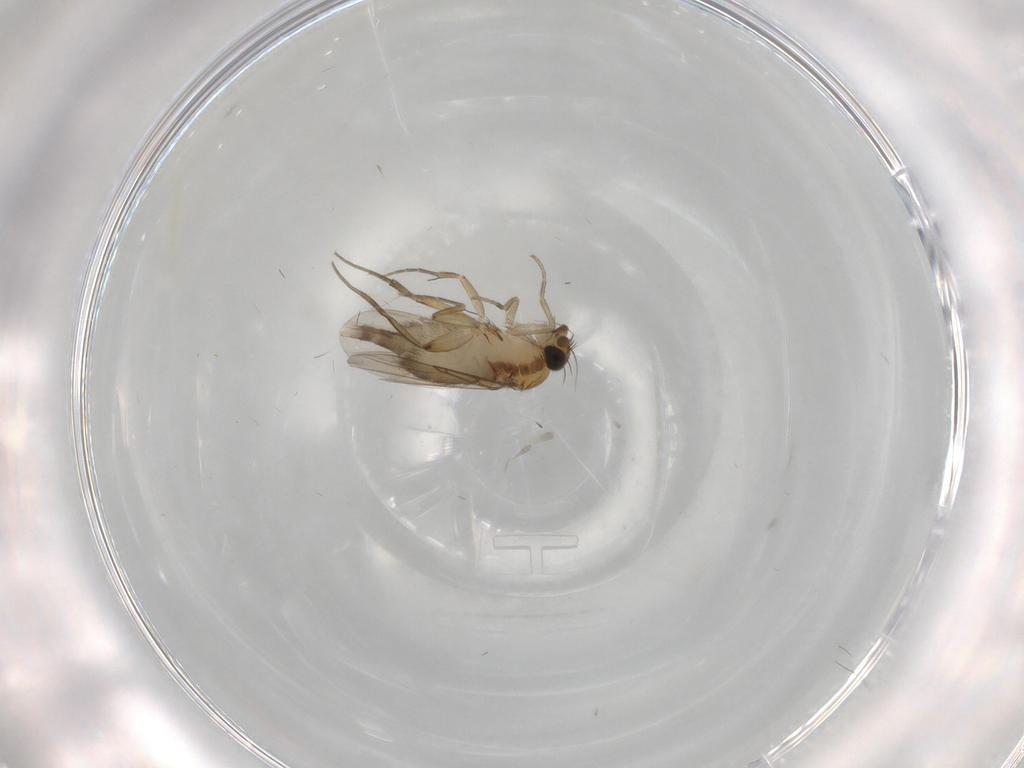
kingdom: Animalia
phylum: Arthropoda
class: Insecta
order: Diptera
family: Phoridae
